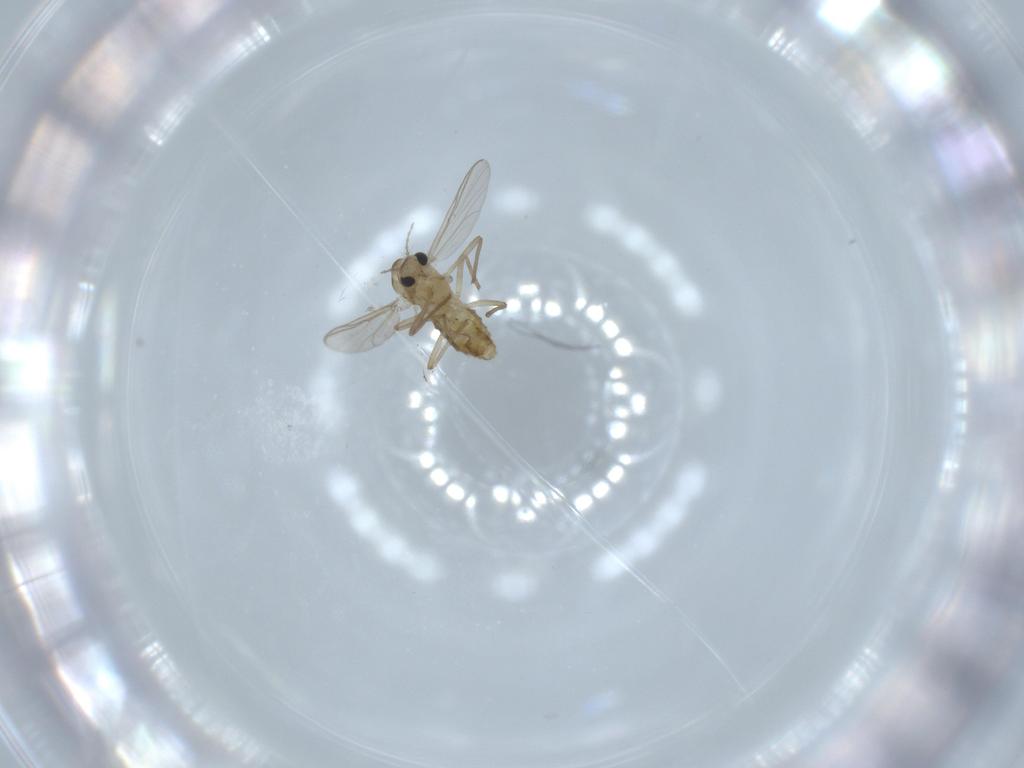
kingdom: Animalia
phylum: Arthropoda
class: Insecta
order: Diptera
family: Chironomidae
